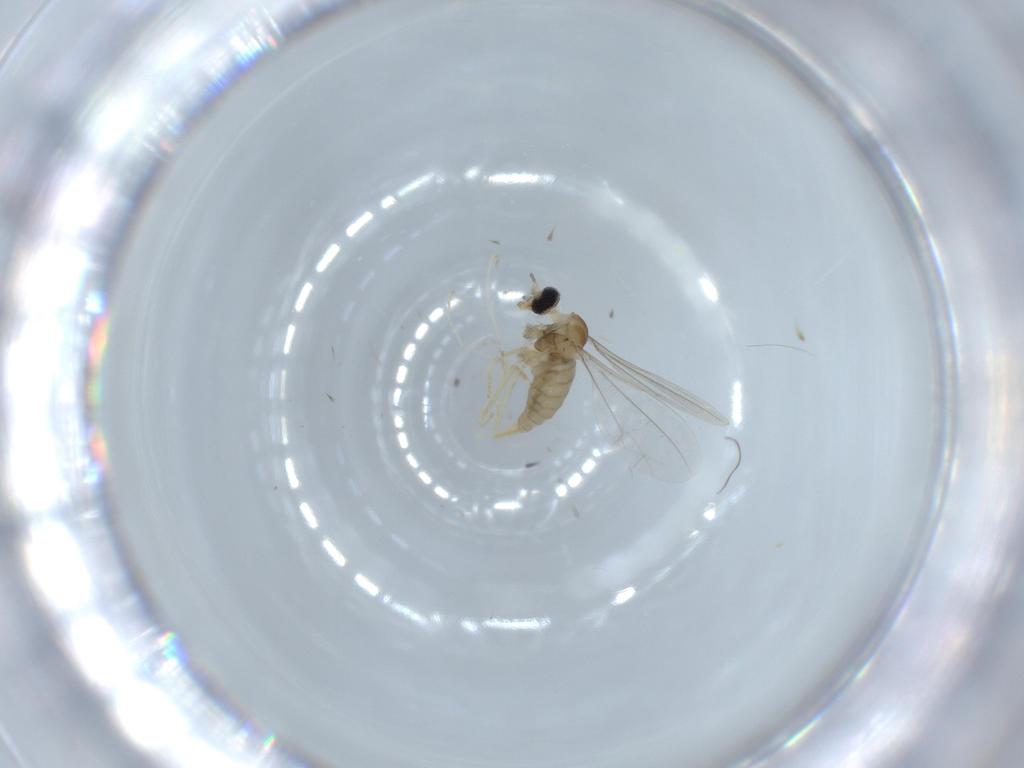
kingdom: Animalia
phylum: Arthropoda
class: Insecta
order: Diptera
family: Cecidomyiidae
